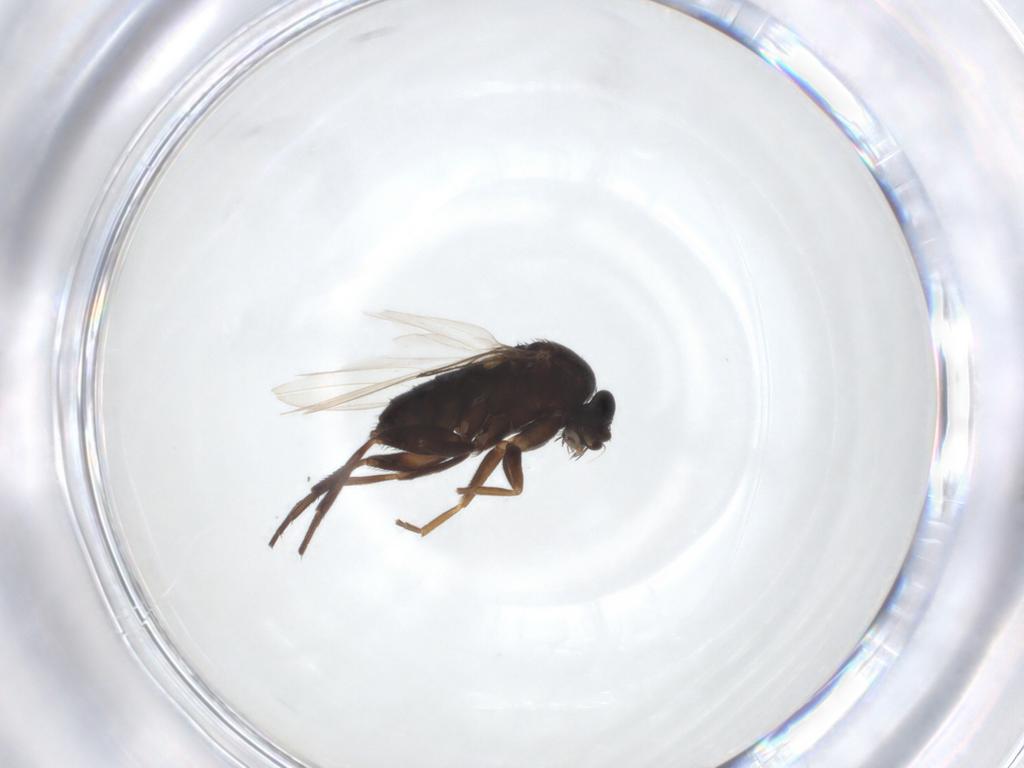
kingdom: Animalia
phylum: Arthropoda
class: Insecta
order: Diptera
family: Phoridae
